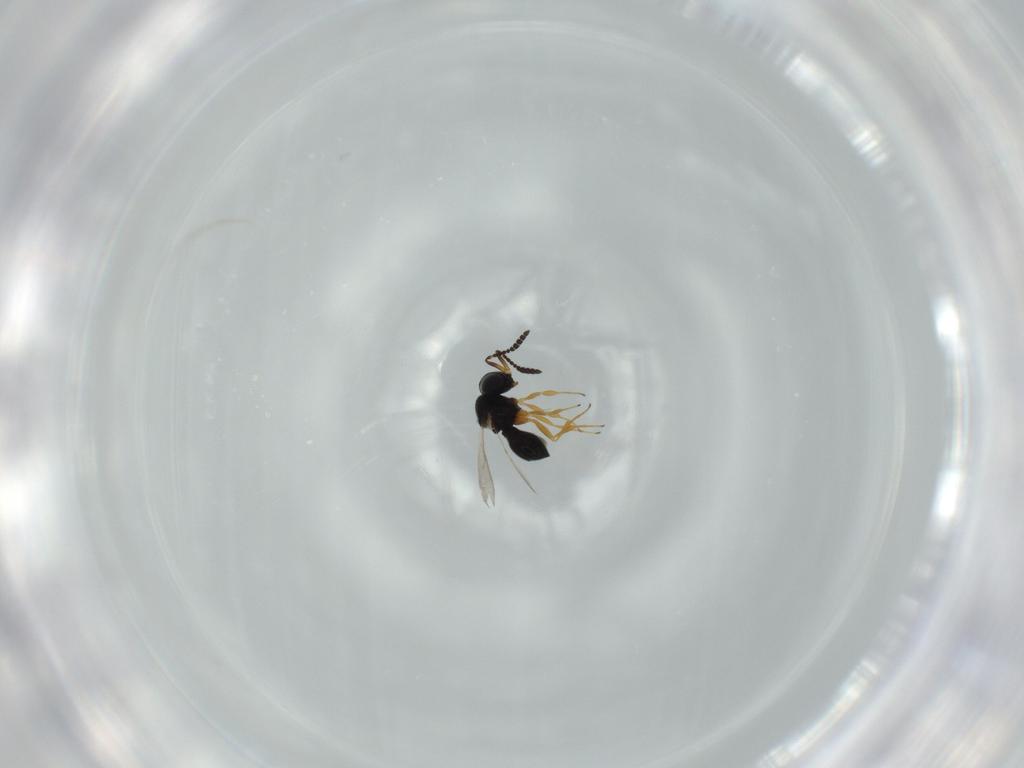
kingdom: Animalia
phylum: Arthropoda
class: Insecta
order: Hymenoptera
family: Scelionidae
